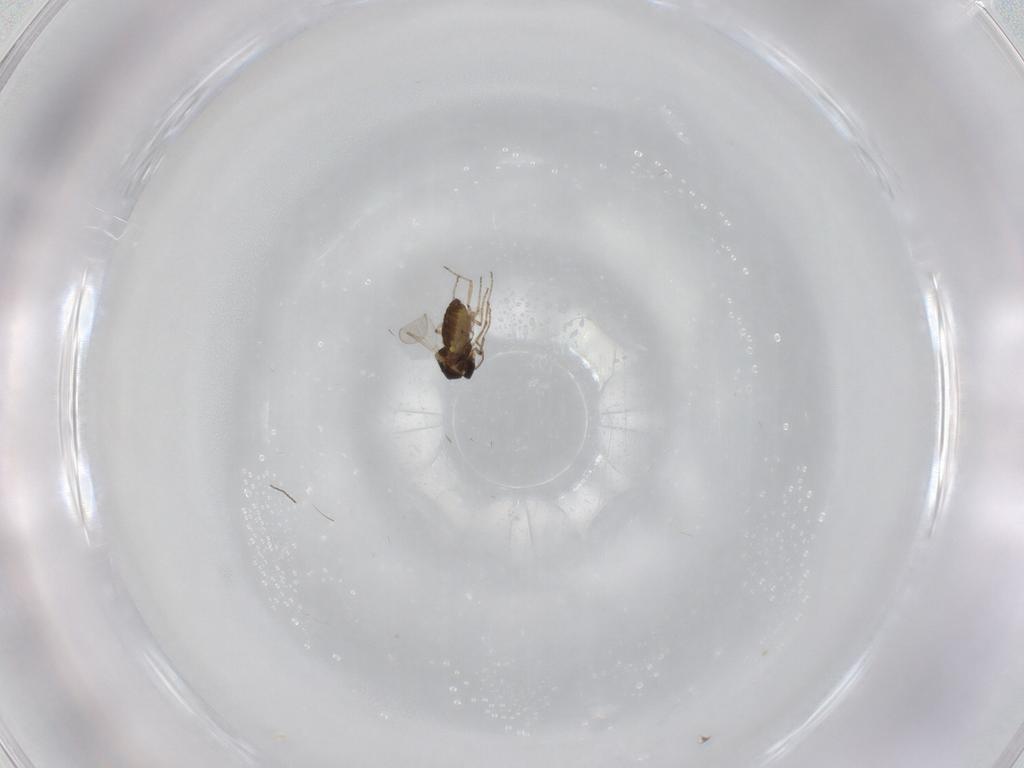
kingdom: Animalia
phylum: Arthropoda
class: Insecta
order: Diptera
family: Ceratopogonidae
